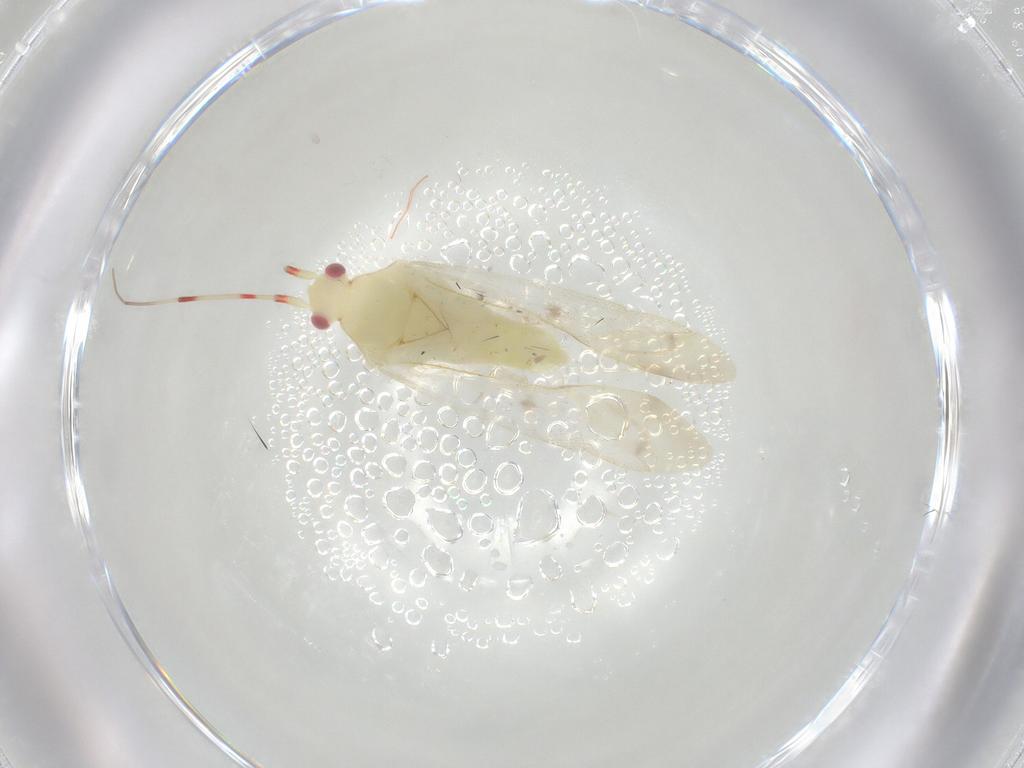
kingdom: Animalia
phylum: Arthropoda
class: Insecta
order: Hemiptera
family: Miridae
